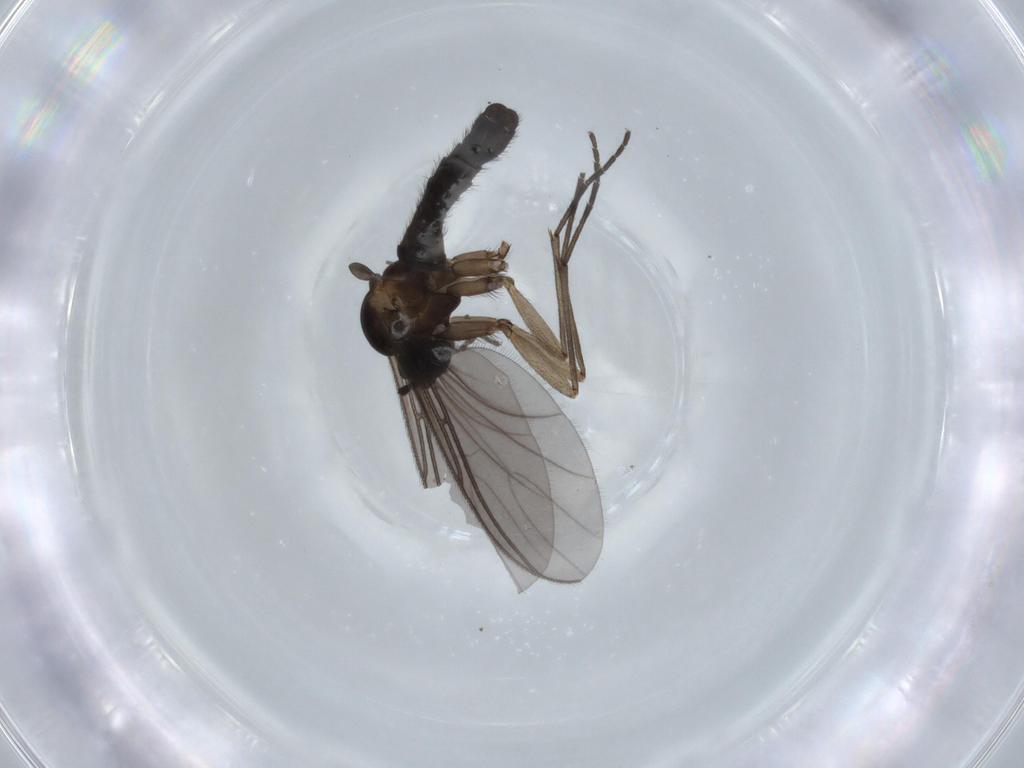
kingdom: Animalia
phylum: Arthropoda
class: Insecta
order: Diptera
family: Sciaridae
